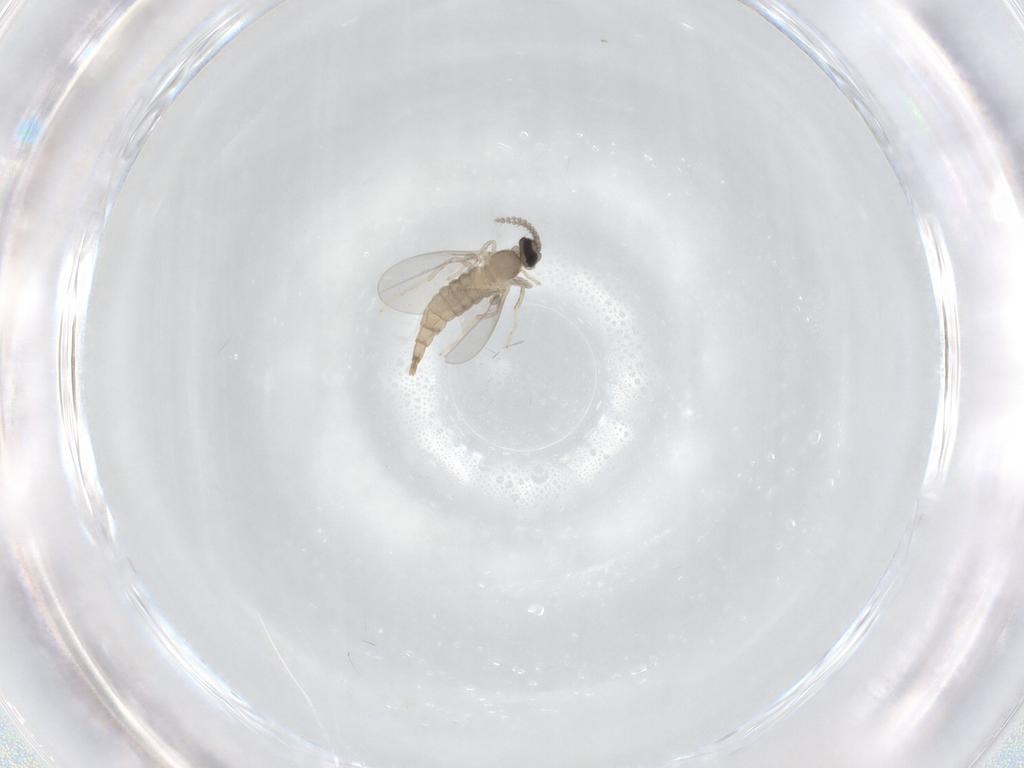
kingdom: Animalia
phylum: Arthropoda
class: Insecta
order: Diptera
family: Cecidomyiidae
